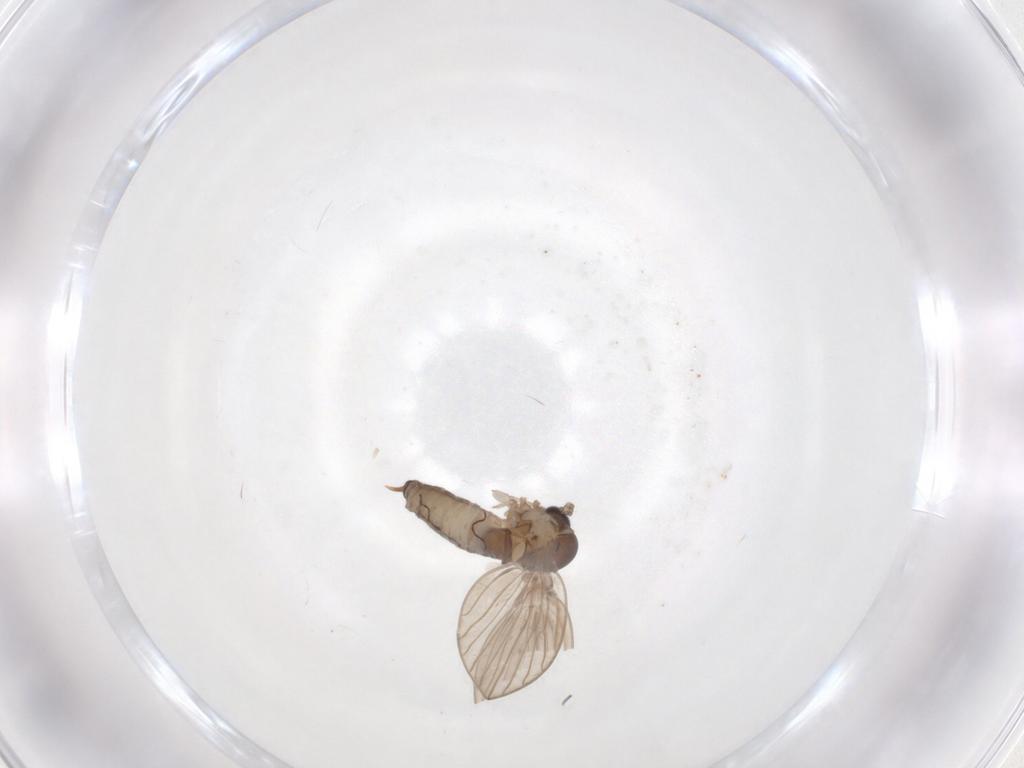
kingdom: Animalia
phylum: Arthropoda
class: Insecta
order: Diptera
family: Psychodidae
